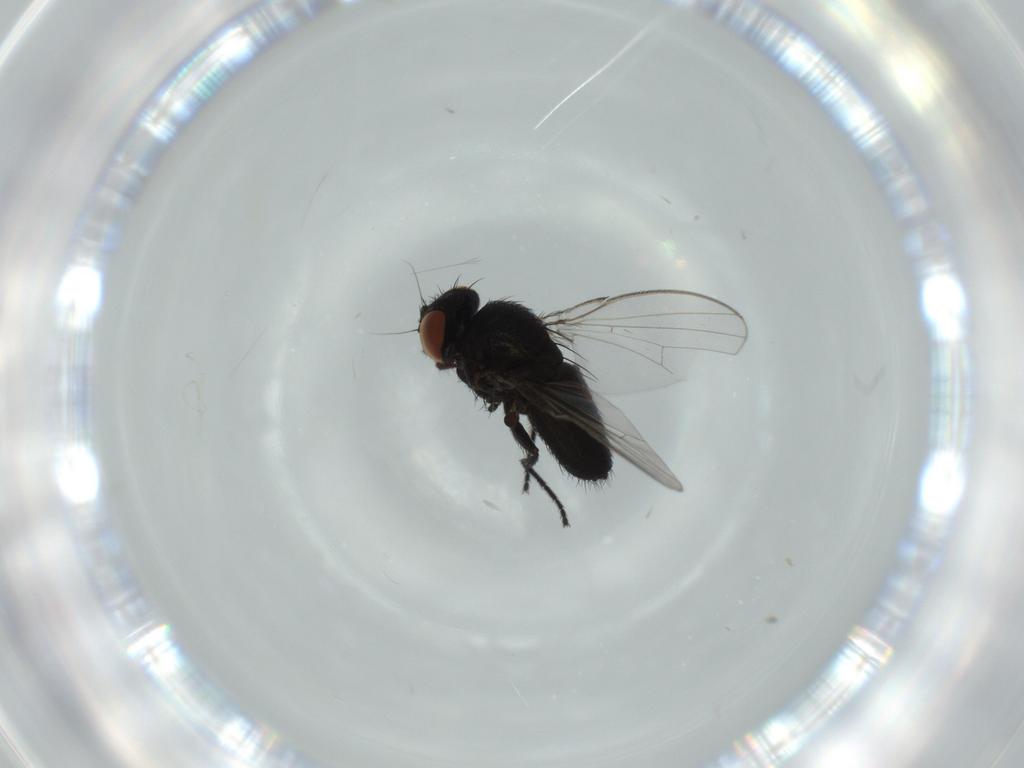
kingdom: Animalia
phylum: Arthropoda
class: Insecta
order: Diptera
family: Milichiidae
